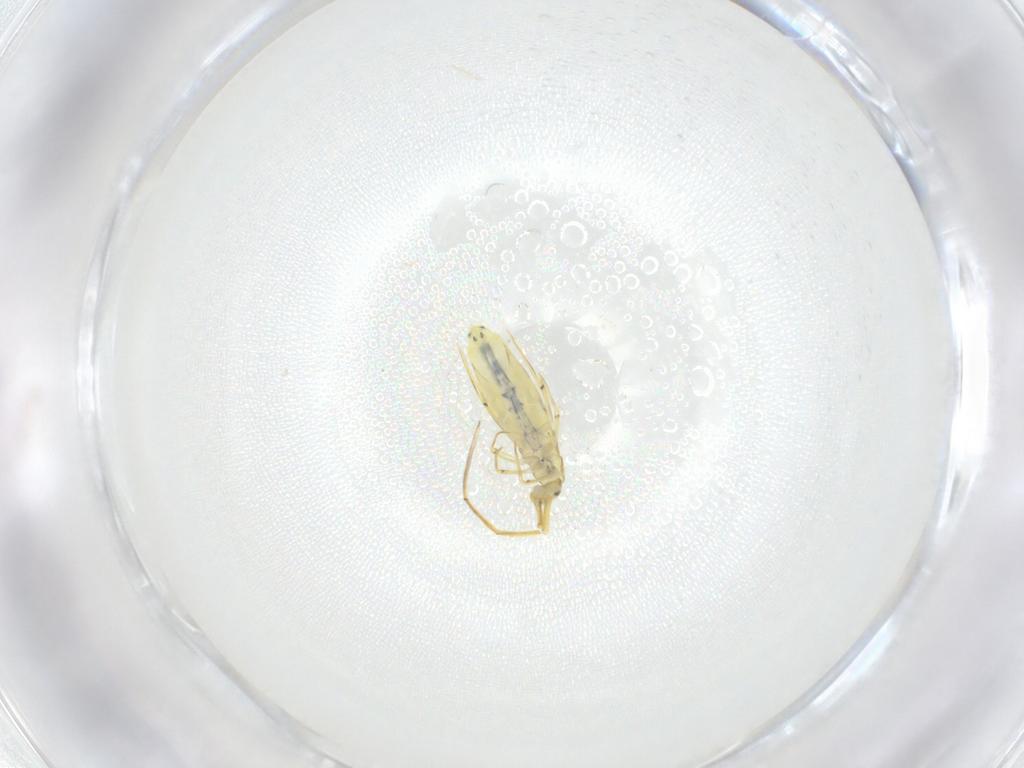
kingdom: Animalia
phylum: Arthropoda
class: Collembola
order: Entomobryomorpha
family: Entomobryidae
